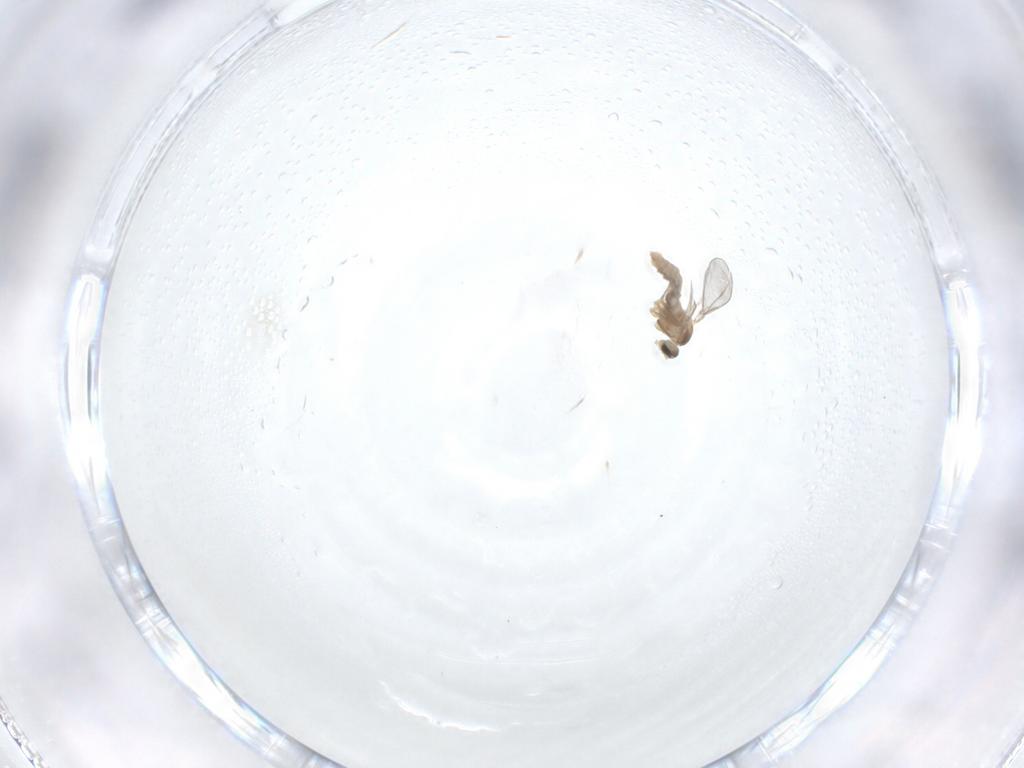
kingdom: Animalia
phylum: Arthropoda
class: Insecta
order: Diptera
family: Cecidomyiidae
